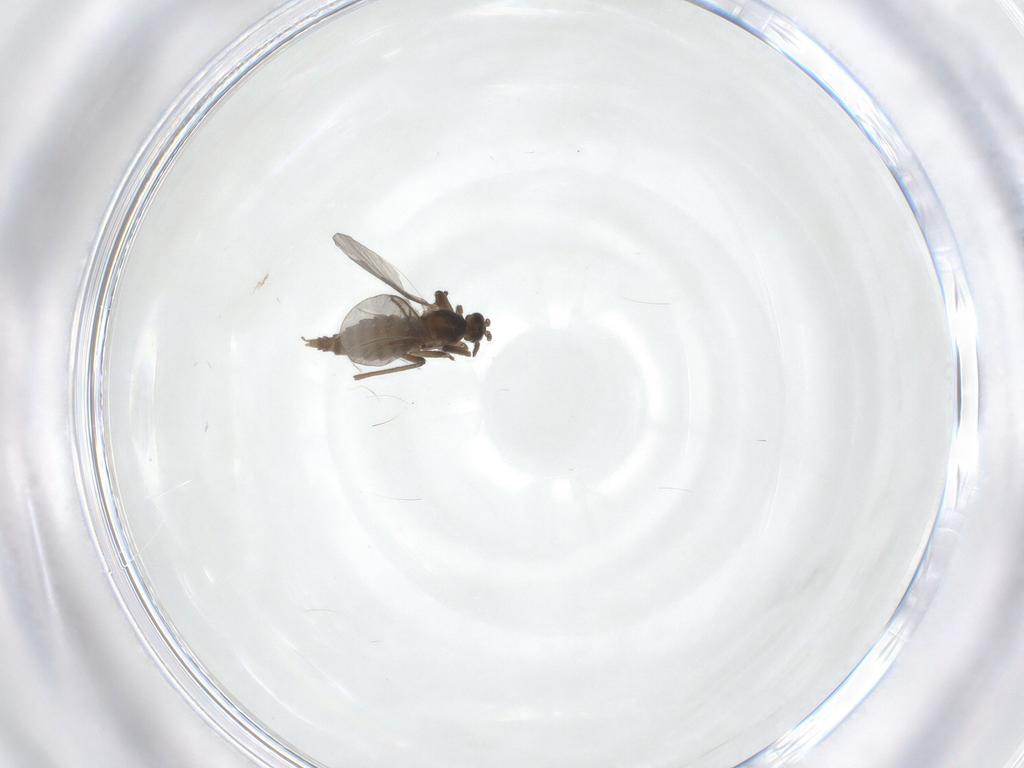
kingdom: Animalia
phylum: Arthropoda
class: Insecta
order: Diptera
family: Cecidomyiidae
